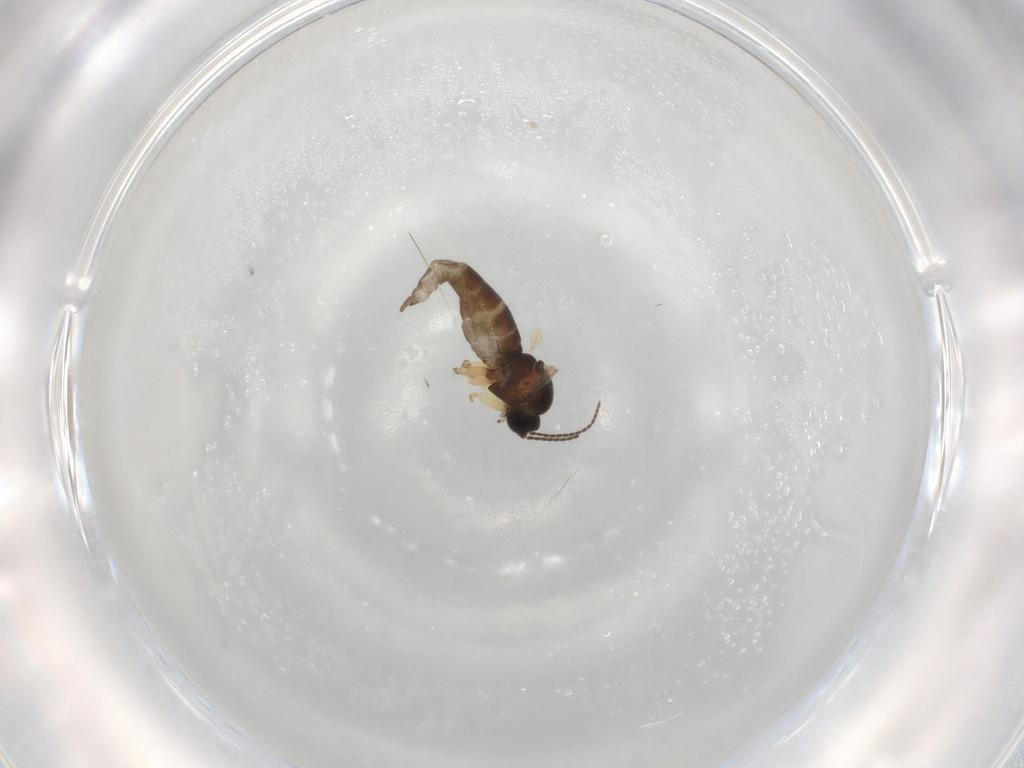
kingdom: Animalia
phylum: Arthropoda
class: Insecta
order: Diptera
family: Sciaridae
